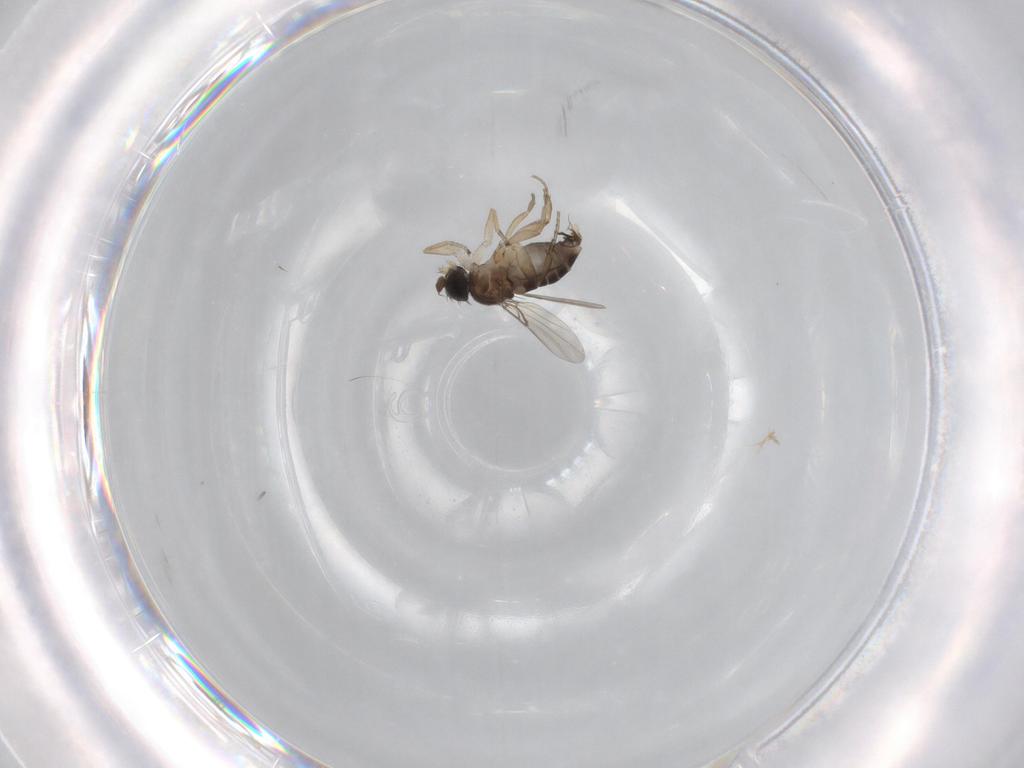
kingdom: Animalia
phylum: Arthropoda
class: Insecta
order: Diptera
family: Phoridae
